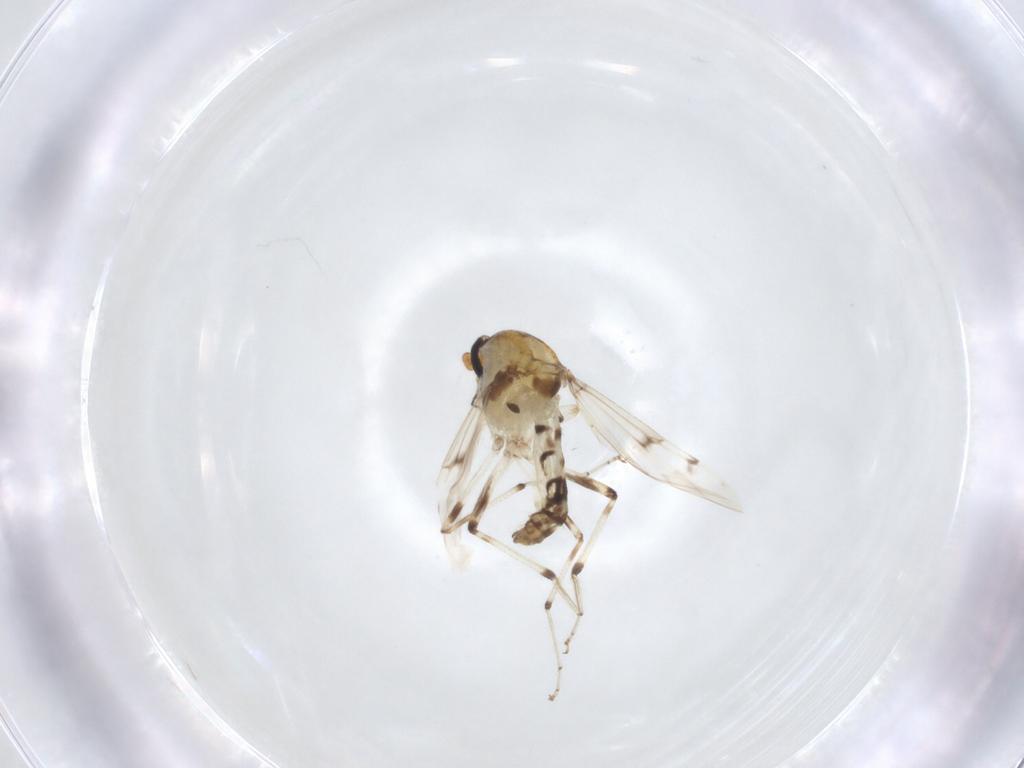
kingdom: Animalia
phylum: Arthropoda
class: Insecta
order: Diptera
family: Ceratopogonidae
